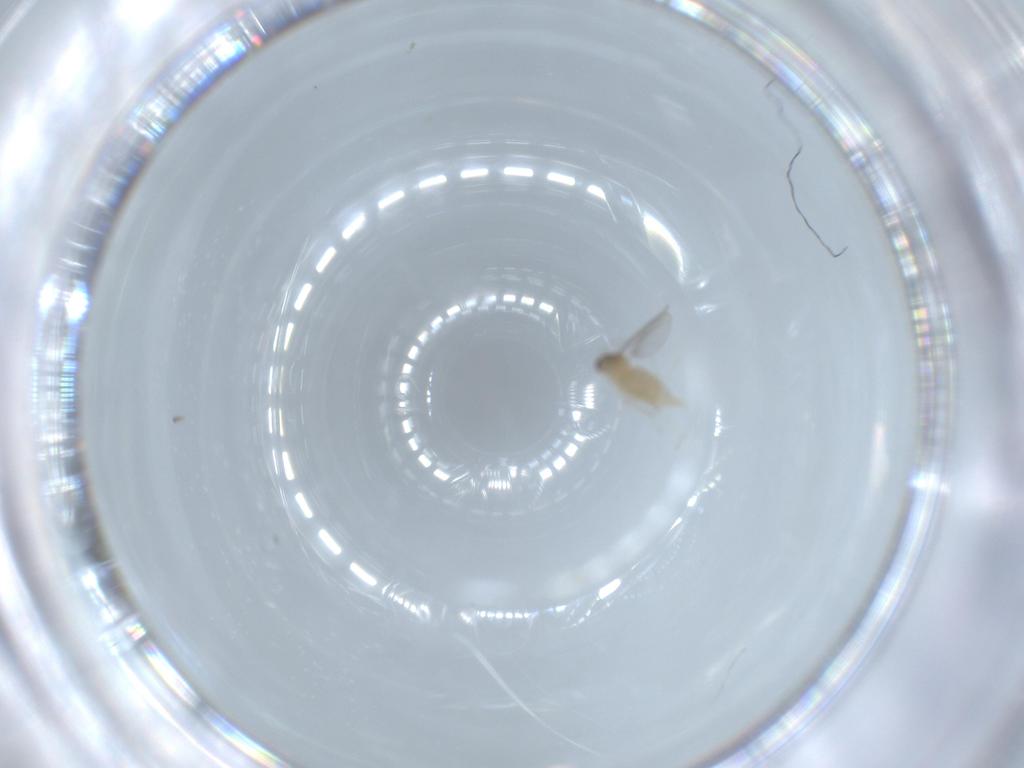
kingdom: Animalia
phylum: Arthropoda
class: Insecta
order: Diptera
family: Cecidomyiidae
